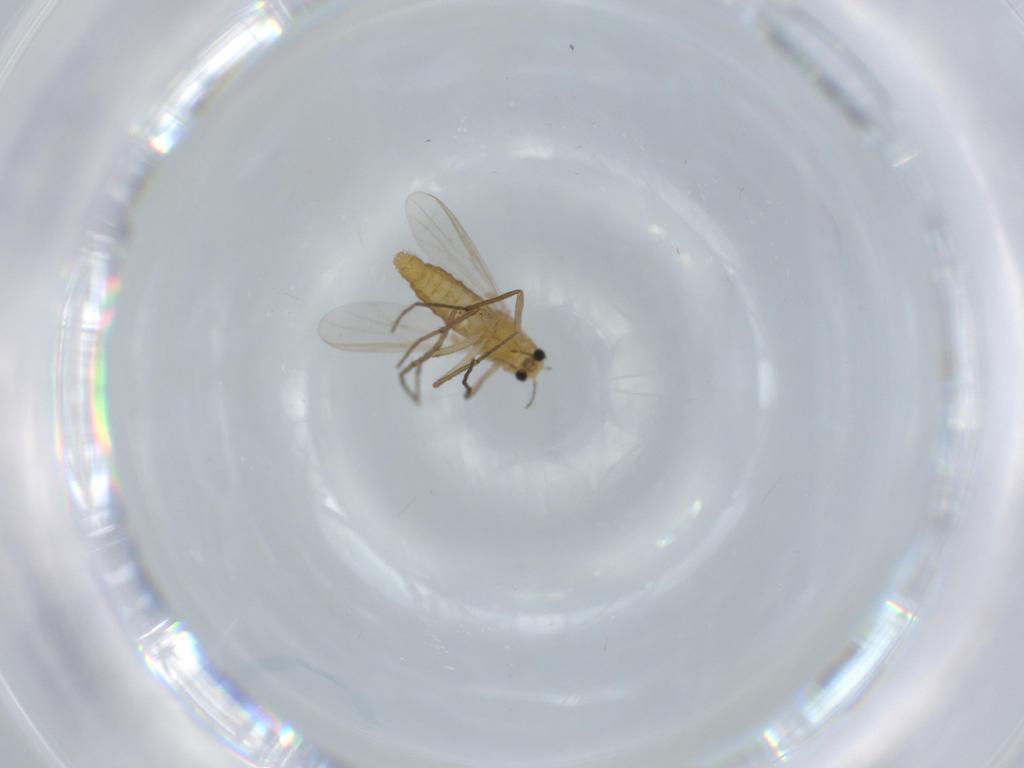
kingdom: Animalia
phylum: Arthropoda
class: Insecta
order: Diptera
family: Chironomidae
